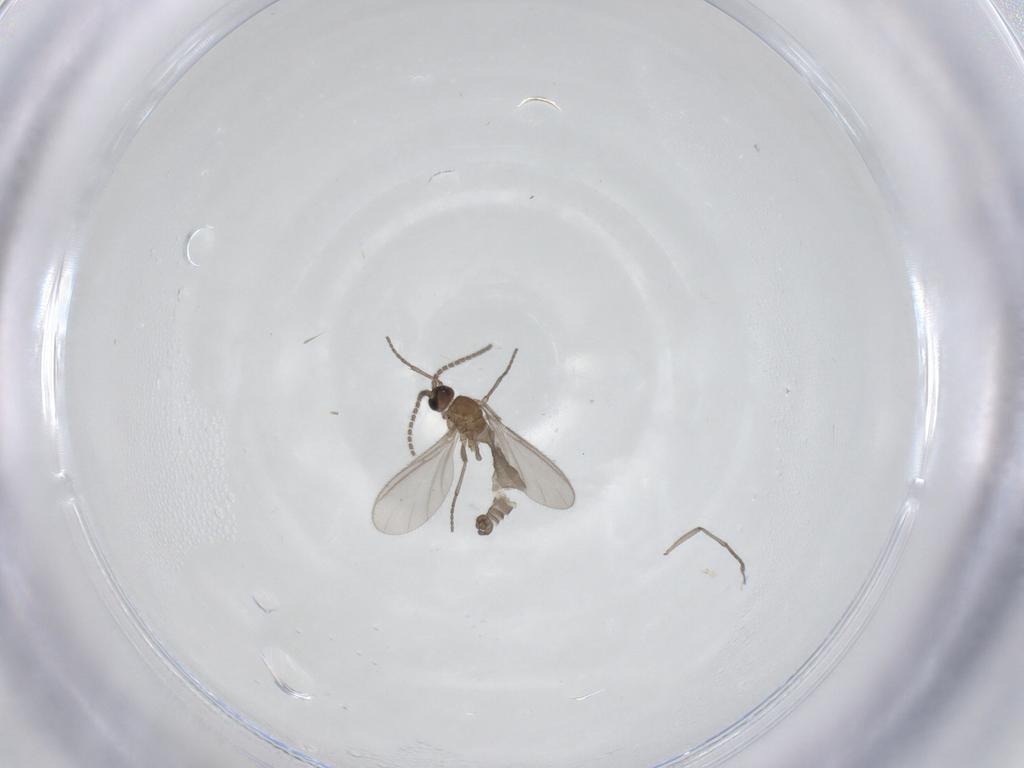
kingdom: Animalia
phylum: Arthropoda
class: Insecta
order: Diptera
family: Sciaridae
